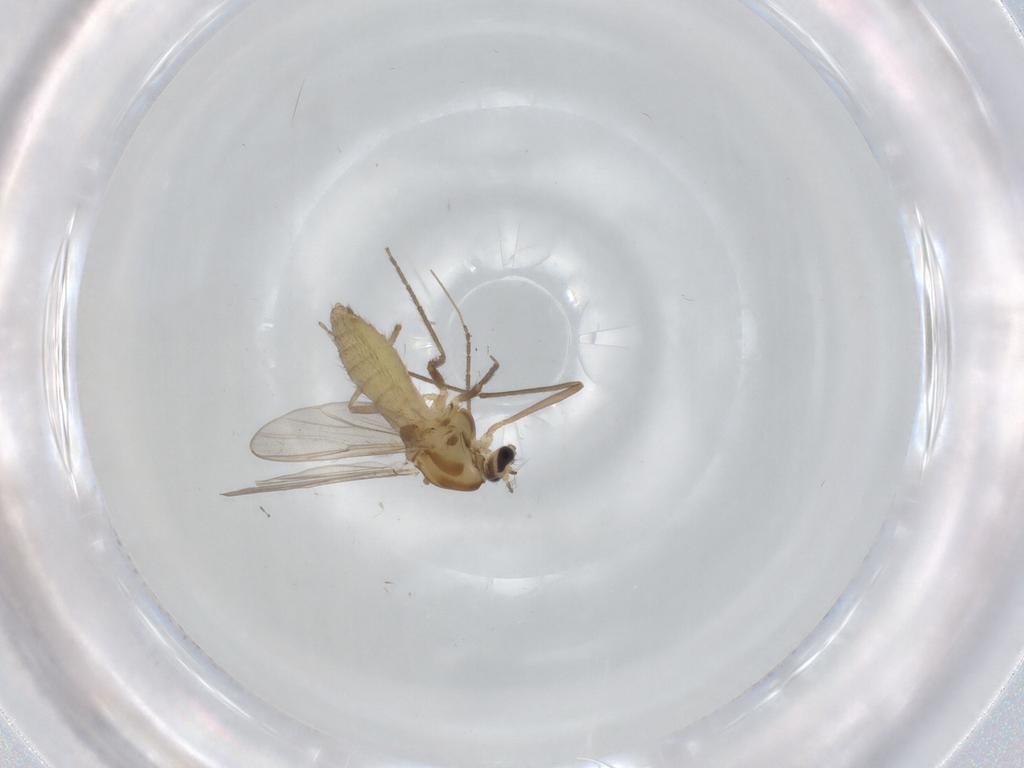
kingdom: Animalia
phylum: Arthropoda
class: Insecta
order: Diptera
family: Chironomidae
